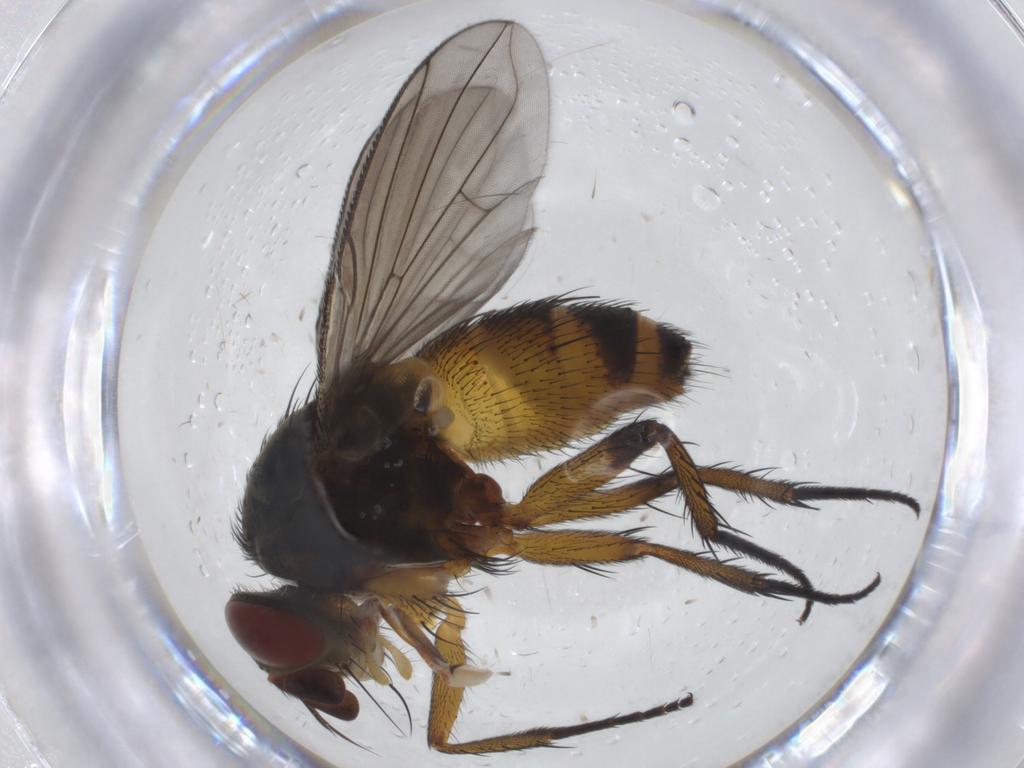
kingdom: Animalia
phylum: Arthropoda
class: Insecta
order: Diptera
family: Tachinidae
